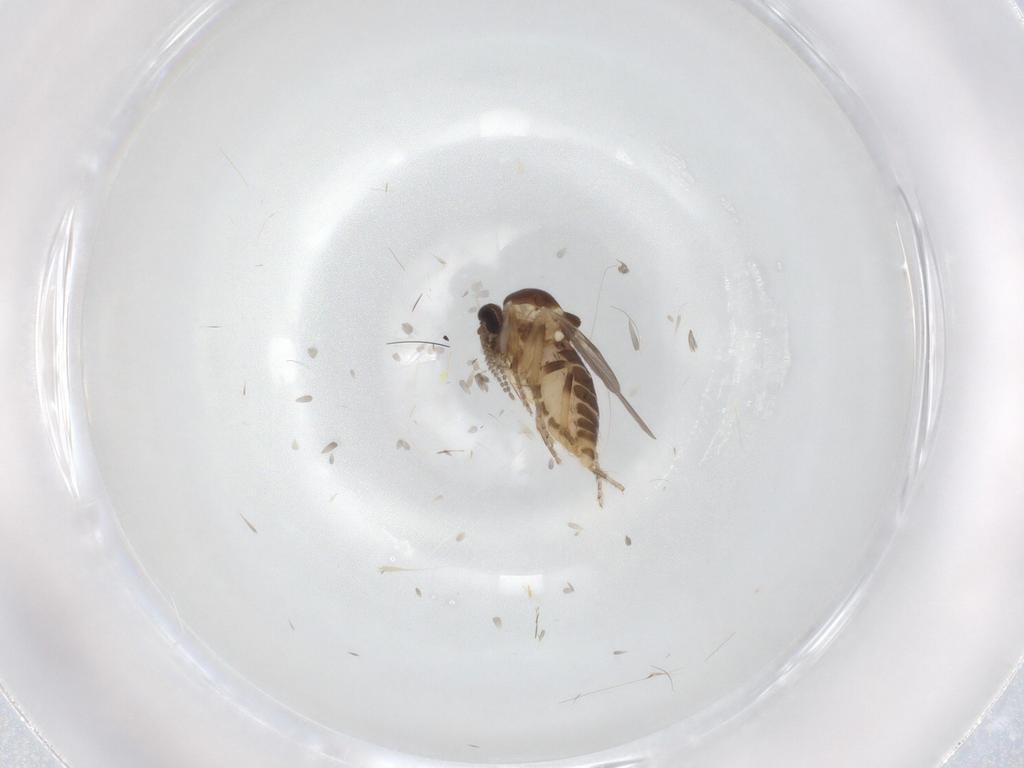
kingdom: Animalia
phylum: Arthropoda
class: Insecta
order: Diptera
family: Ceratopogonidae
